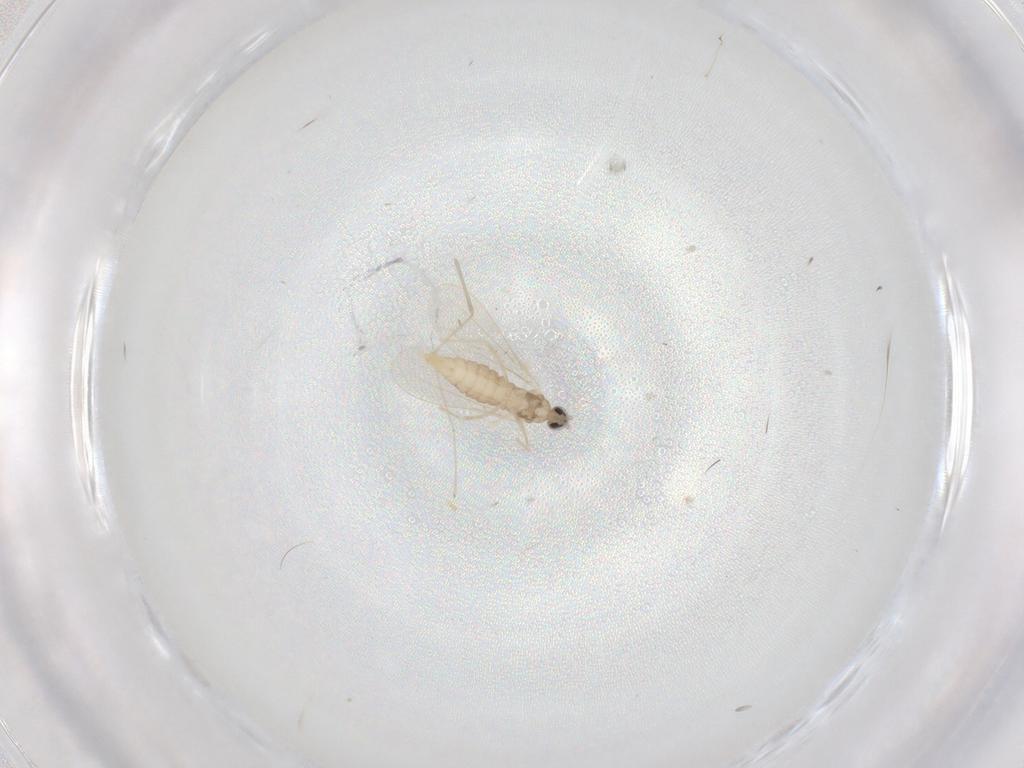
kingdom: Animalia
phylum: Arthropoda
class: Insecta
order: Diptera
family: Cecidomyiidae
